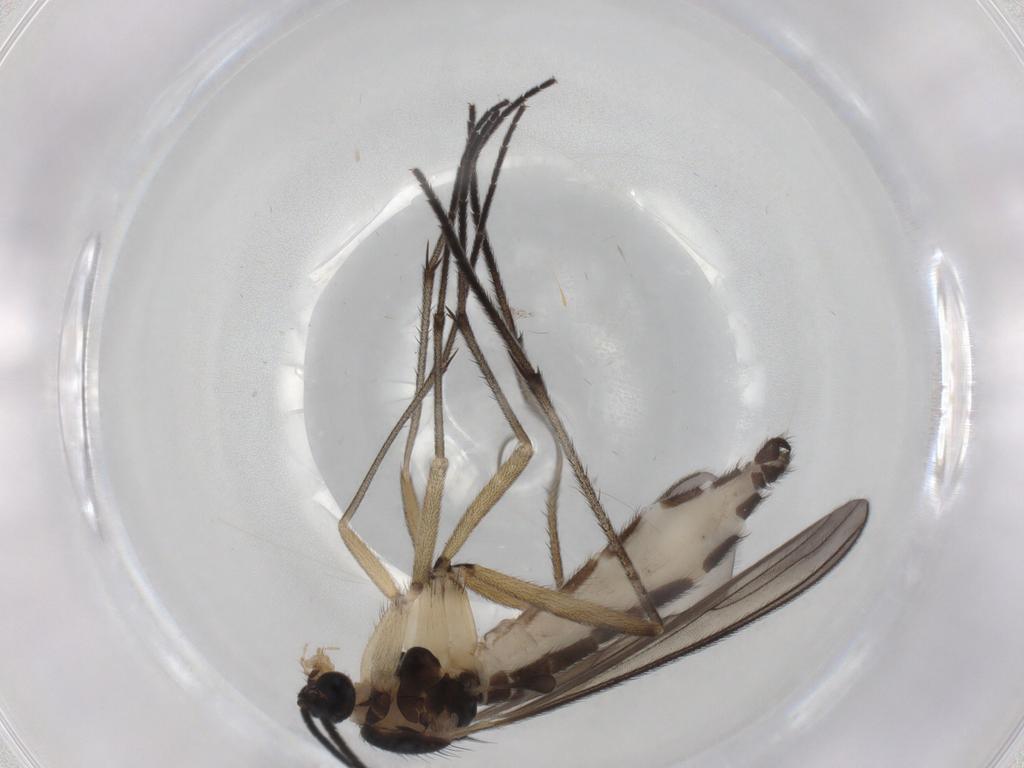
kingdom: Animalia
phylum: Arthropoda
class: Insecta
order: Diptera
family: Sciaridae
